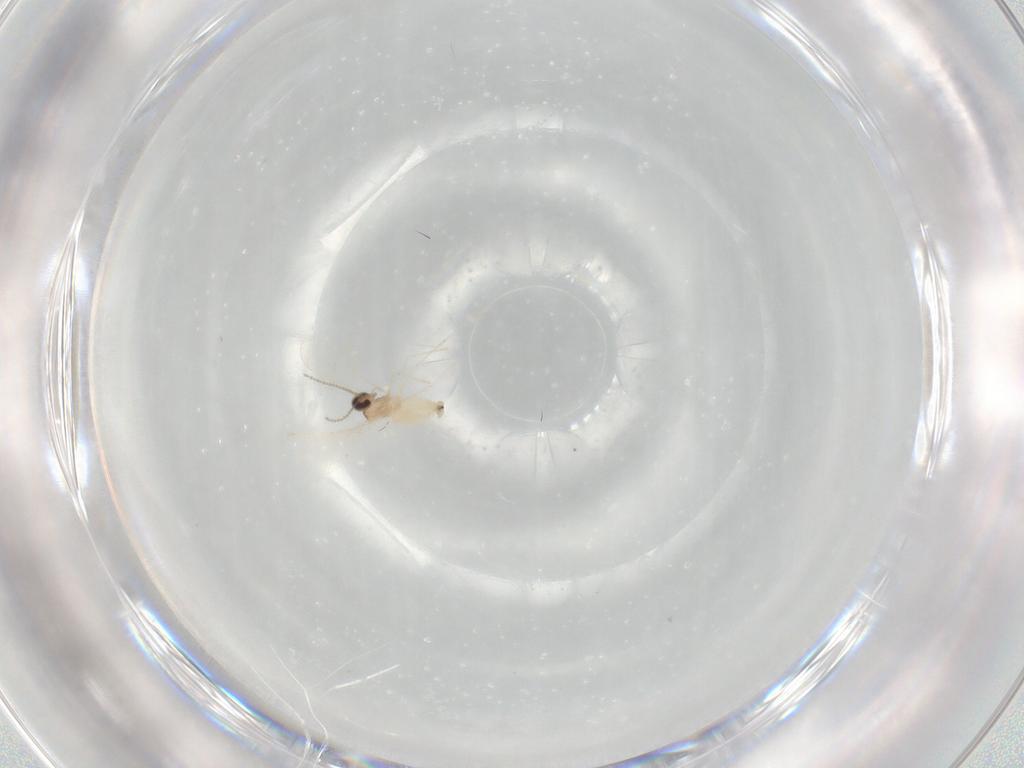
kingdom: Animalia
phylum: Arthropoda
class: Insecta
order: Diptera
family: Cecidomyiidae
